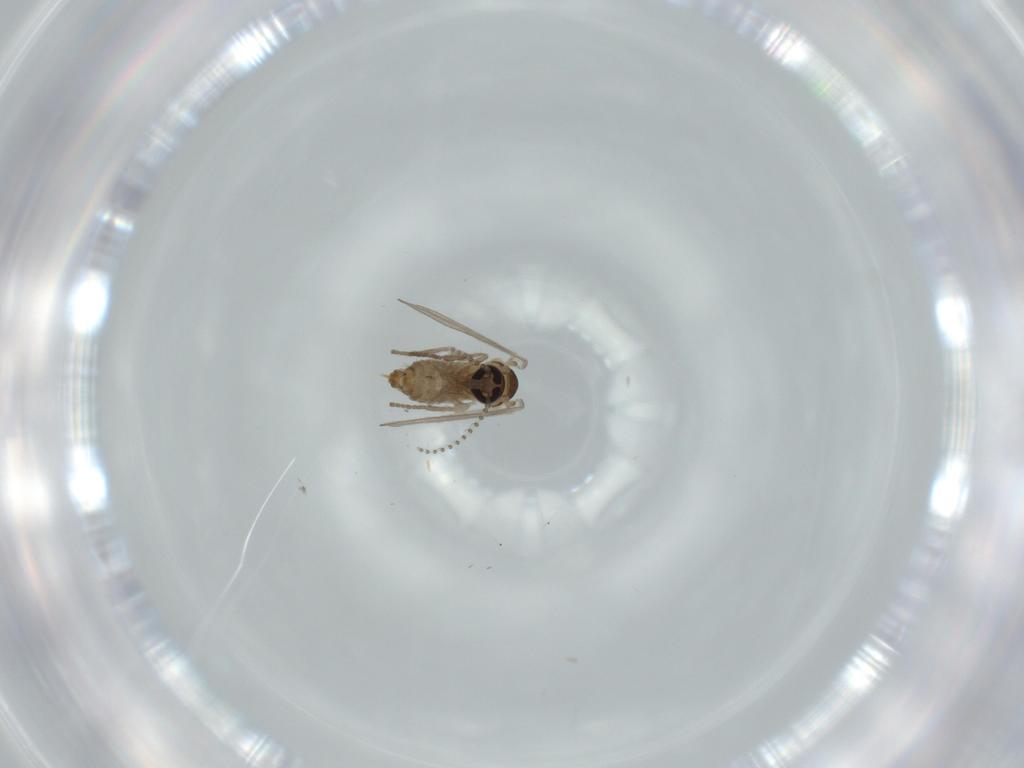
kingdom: Animalia
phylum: Arthropoda
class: Insecta
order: Diptera
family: Psychodidae
